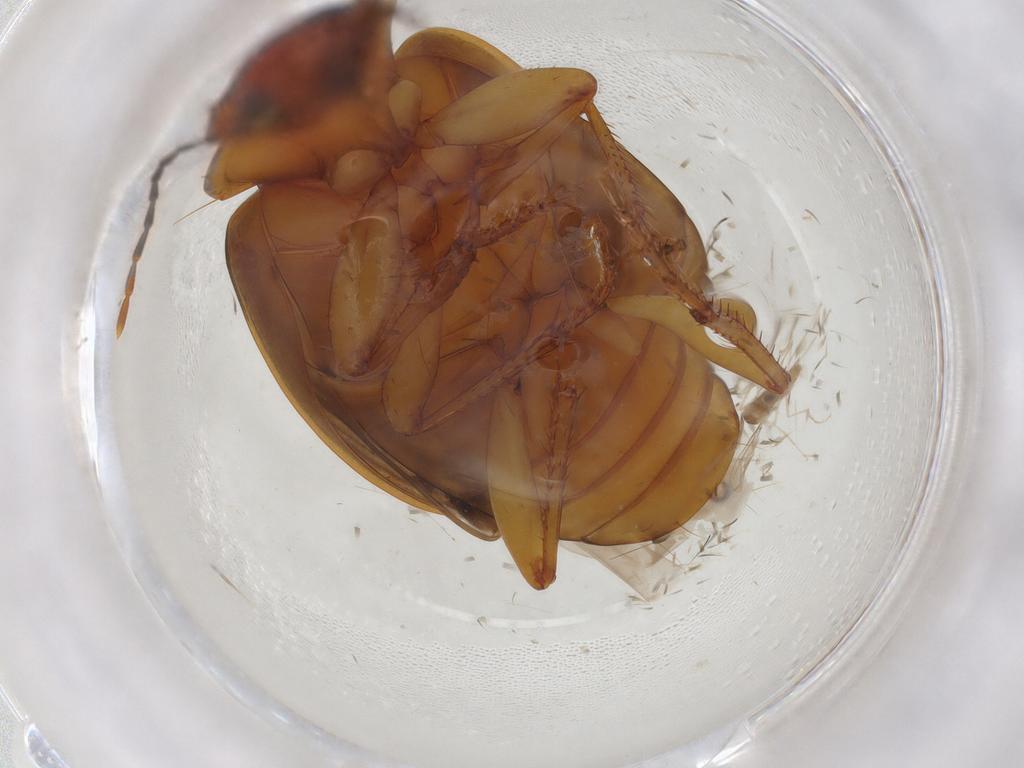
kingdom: Animalia
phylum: Arthropoda
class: Insecta
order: Coleoptera
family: Carabidae
